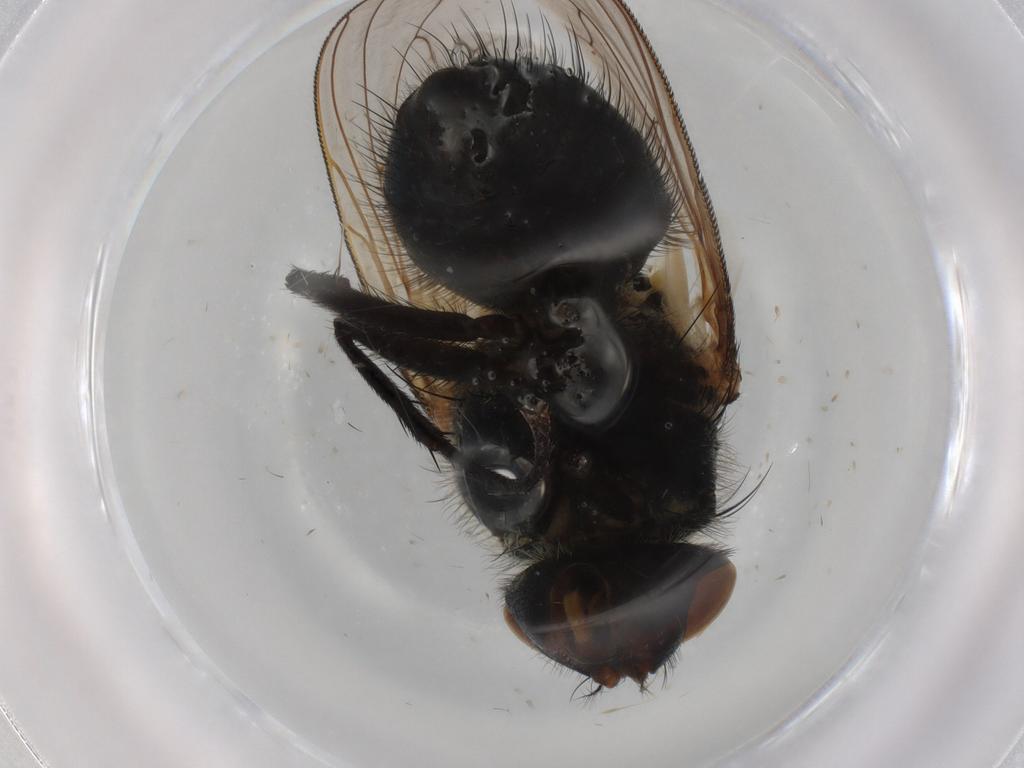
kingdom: Animalia
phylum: Arthropoda
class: Insecta
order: Diptera
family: Polleniidae
